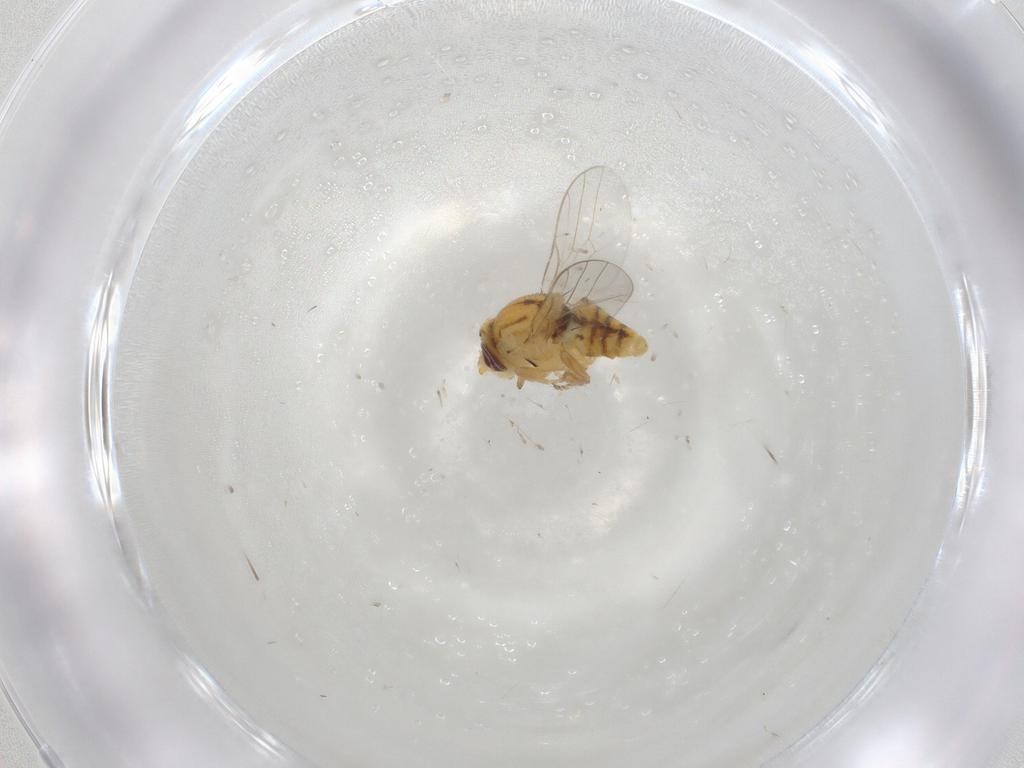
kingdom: Animalia
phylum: Arthropoda
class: Insecta
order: Diptera
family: Chloropidae
